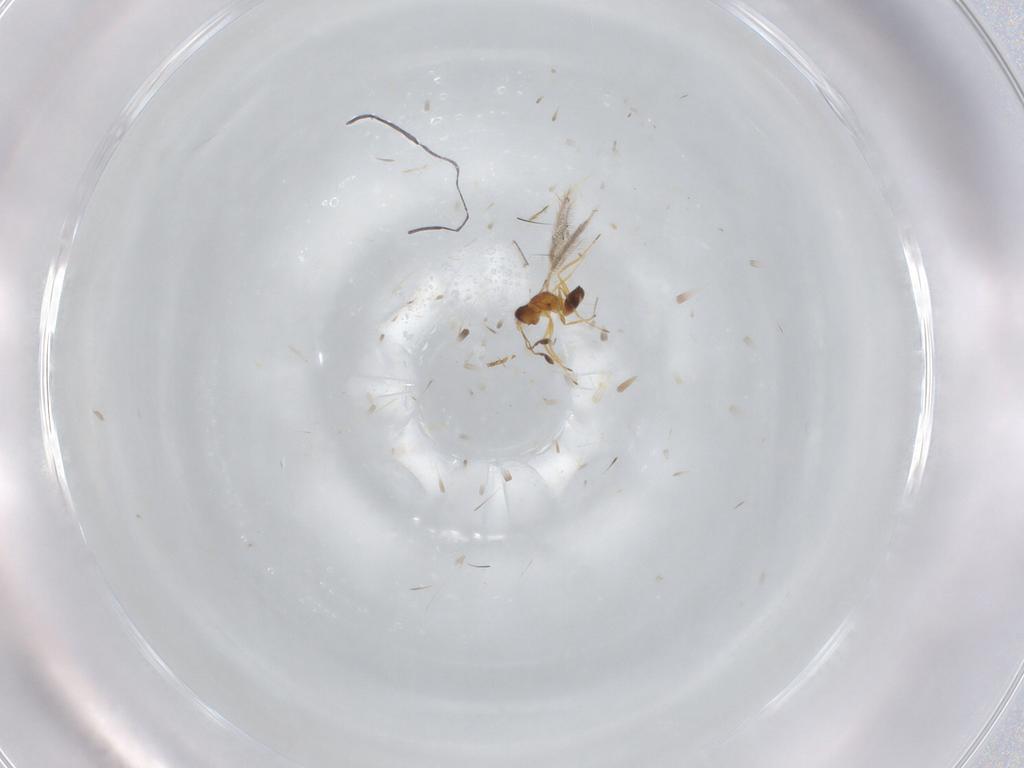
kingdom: Animalia
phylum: Arthropoda
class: Insecta
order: Hymenoptera
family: Mymaridae
